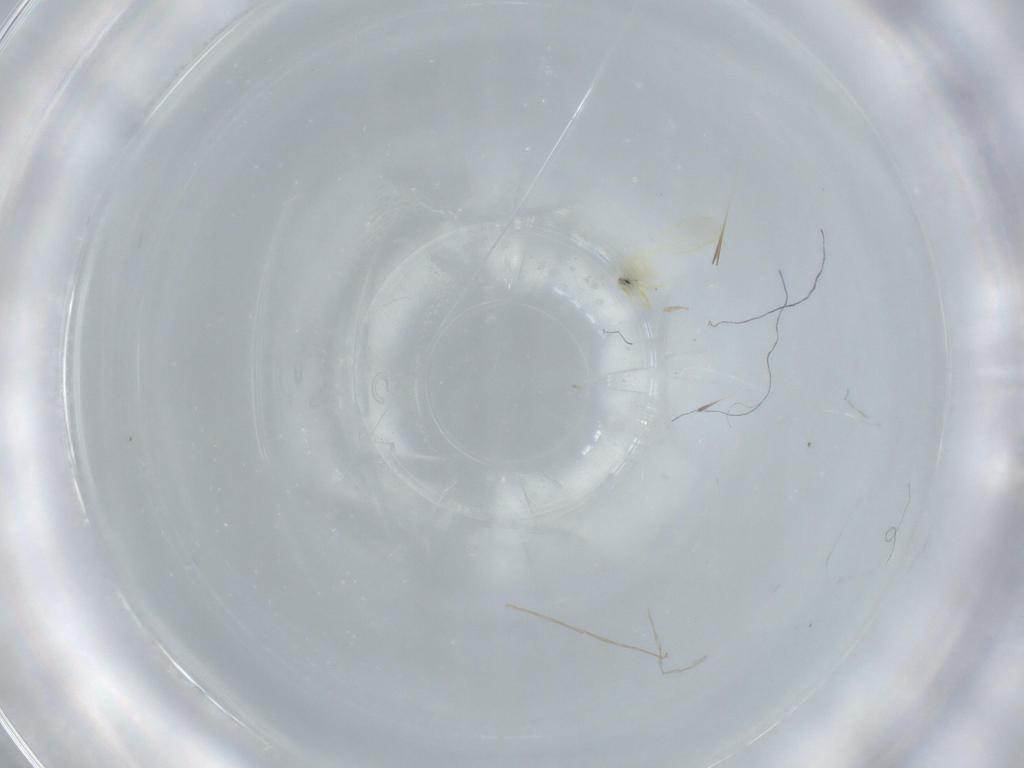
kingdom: Animalia
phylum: Arthropoda
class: Insecta
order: Hemiptera
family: Aleyrodidae
